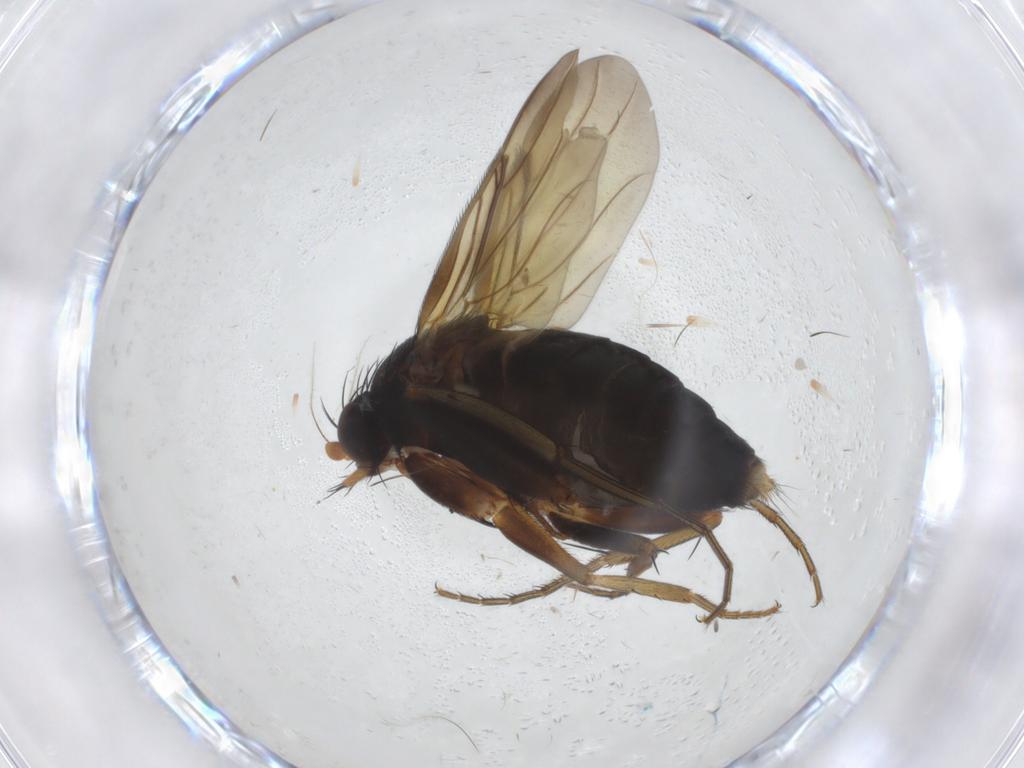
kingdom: Animalia
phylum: Arthropoda
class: Insecta
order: Diptera
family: Phoridae
